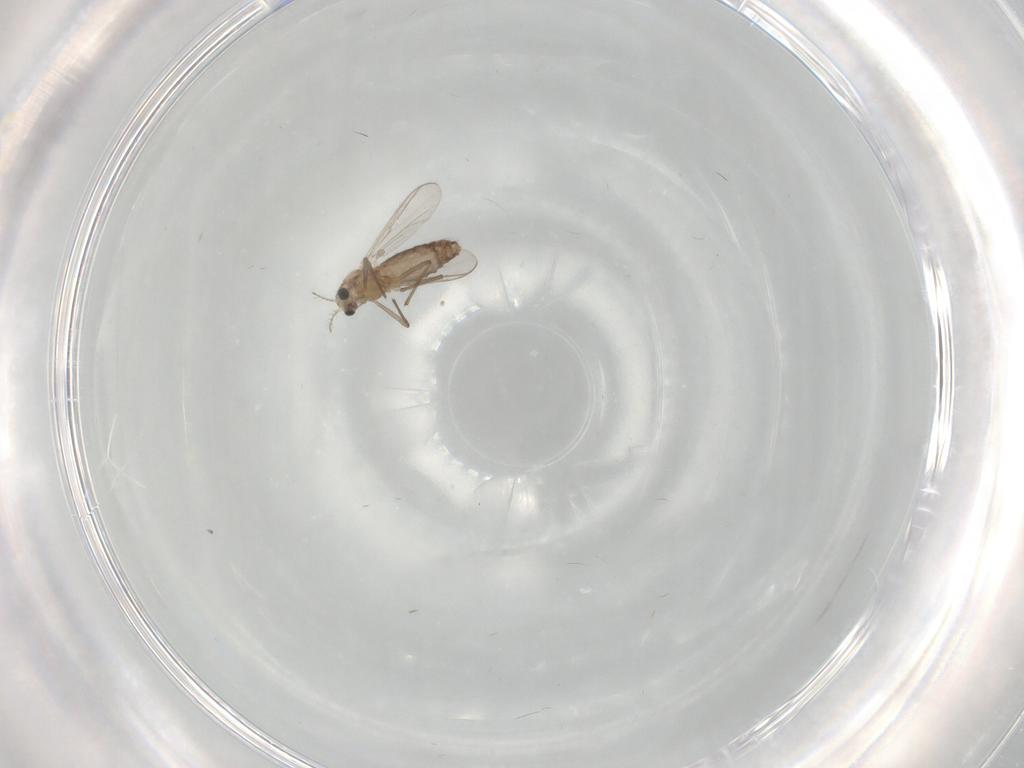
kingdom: Animalia
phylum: Arthropoda
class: Insecta
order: Diptera
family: Chironomidae
